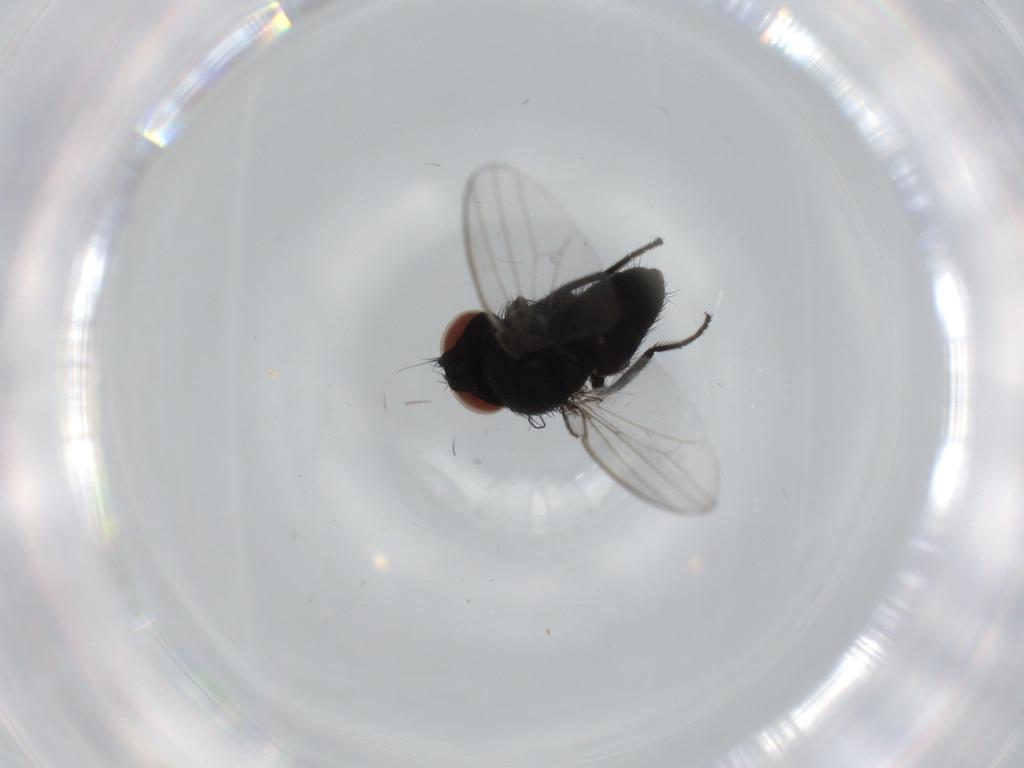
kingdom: Animalia
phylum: Arthropoda
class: Insecta
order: Diptera
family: Milichiidae
